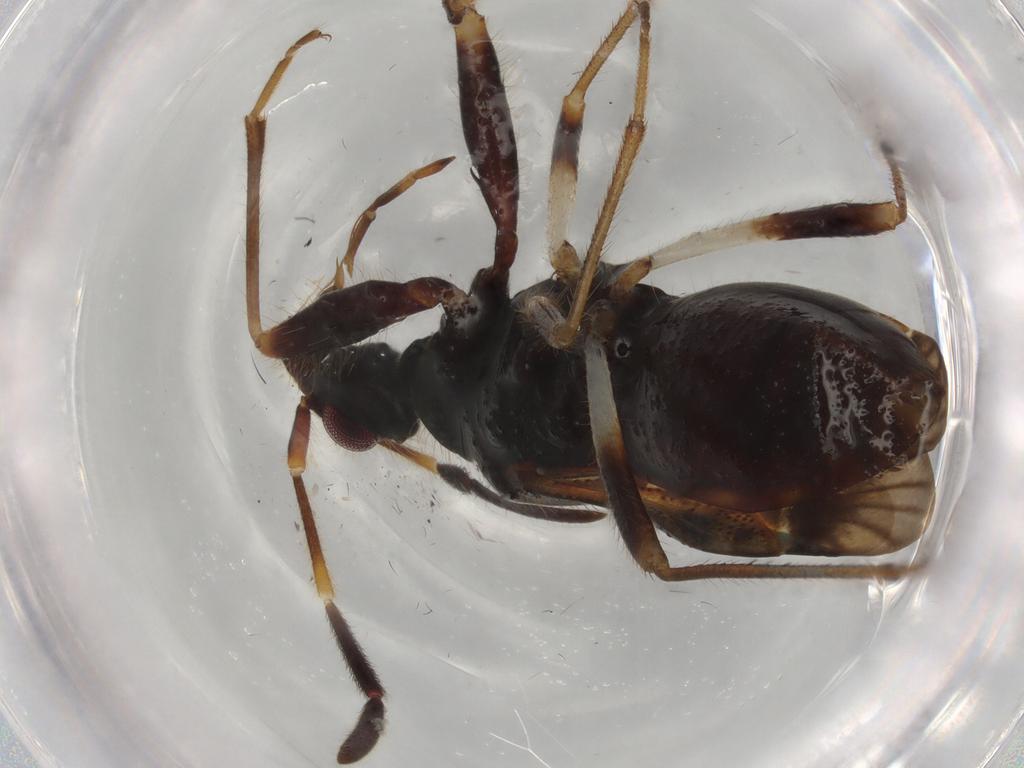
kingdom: Animalia
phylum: Arthropoda
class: Insecta
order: Hemiptera
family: Rhyparochromidae
